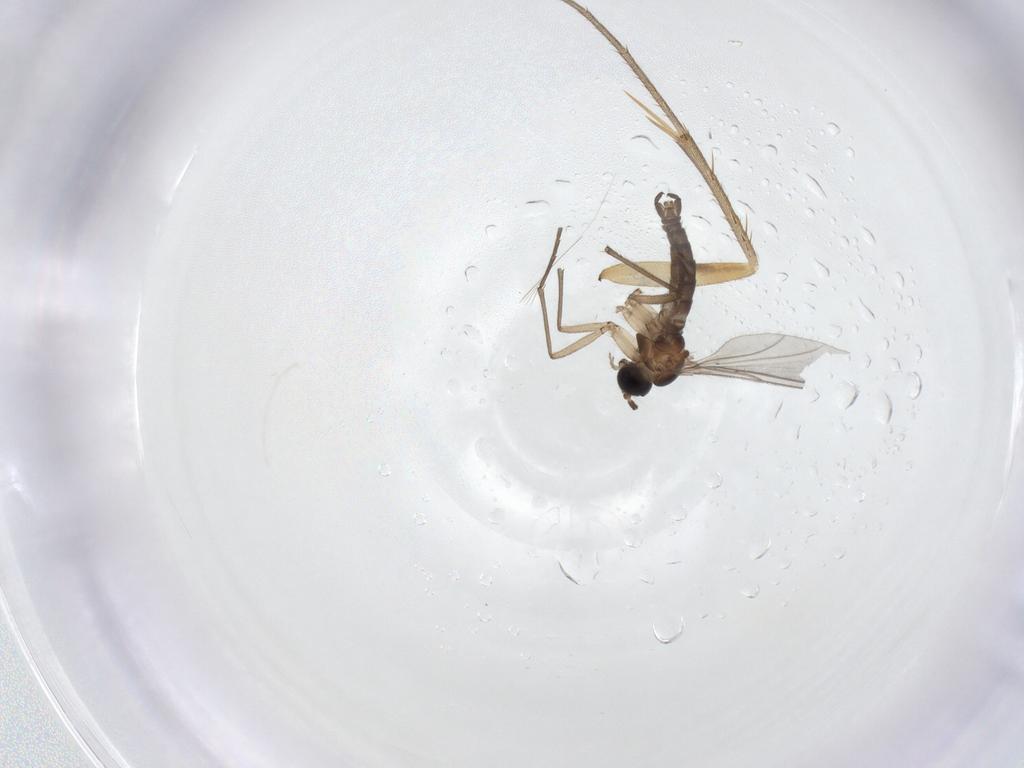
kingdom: Animalia
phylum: Arthropoda
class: Insecta
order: Diptera
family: Sciaridae
